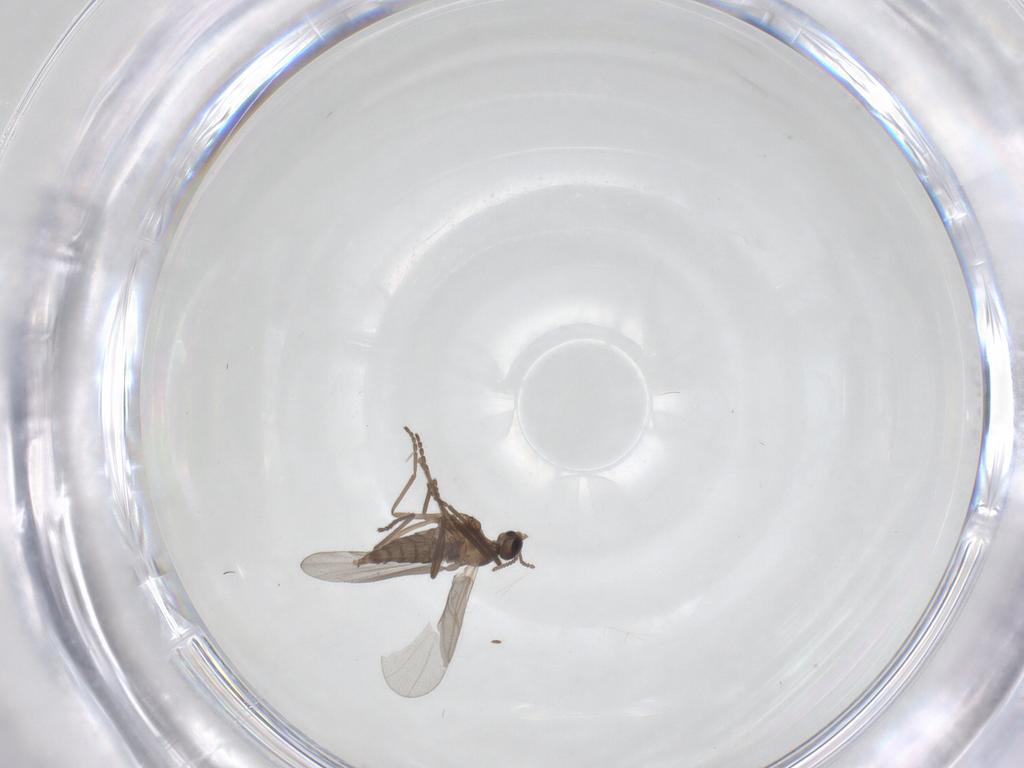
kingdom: Animalia
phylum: Arthropoda
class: Insecta
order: Diptera
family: Cecidomyiidae
